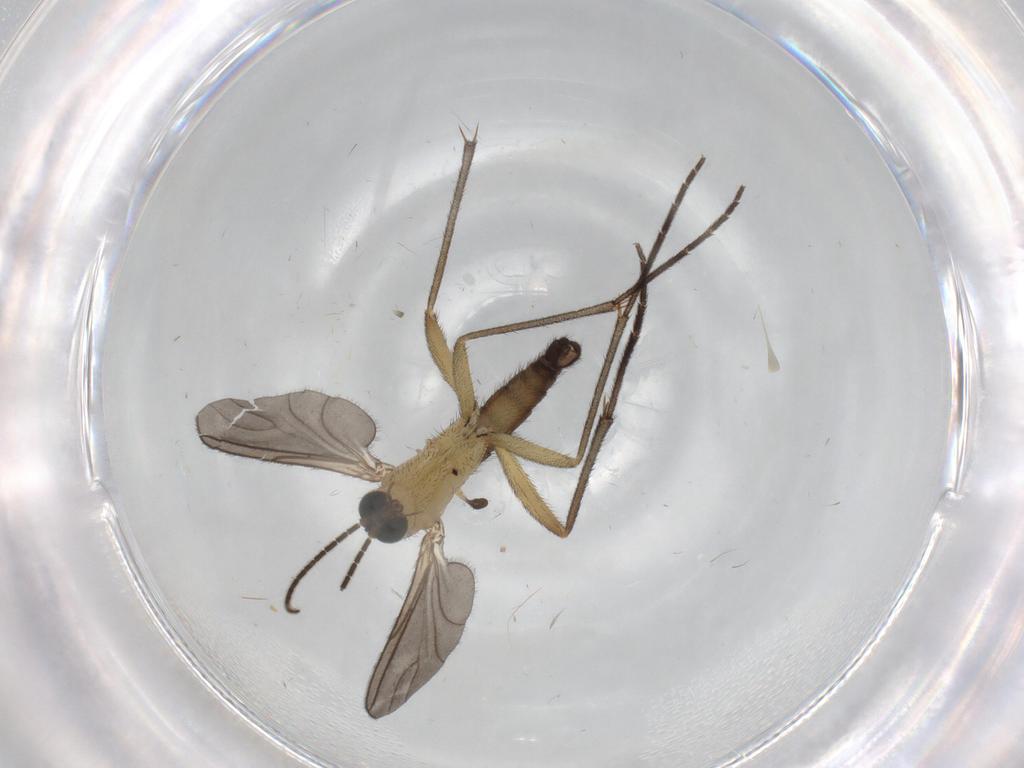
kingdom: Animalia
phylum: Arthropoda
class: Insecta
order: Diptera
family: Sciaridae
